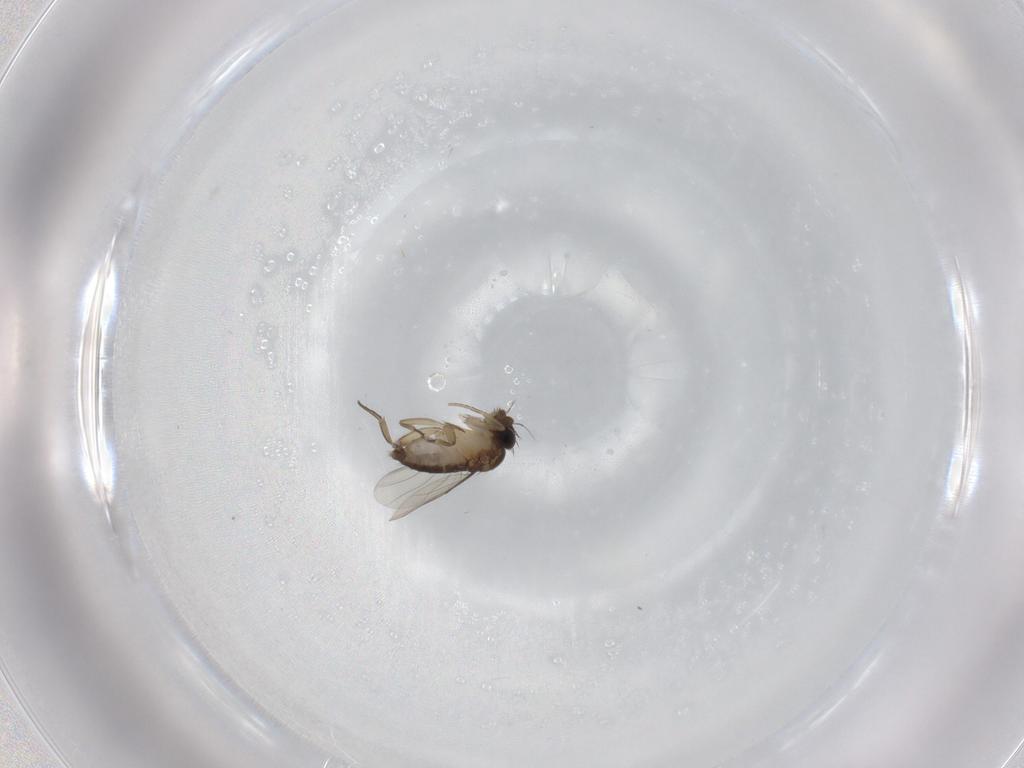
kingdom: Animalia
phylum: Arthropoda
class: Insecta
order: Diptera
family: Phoridae
